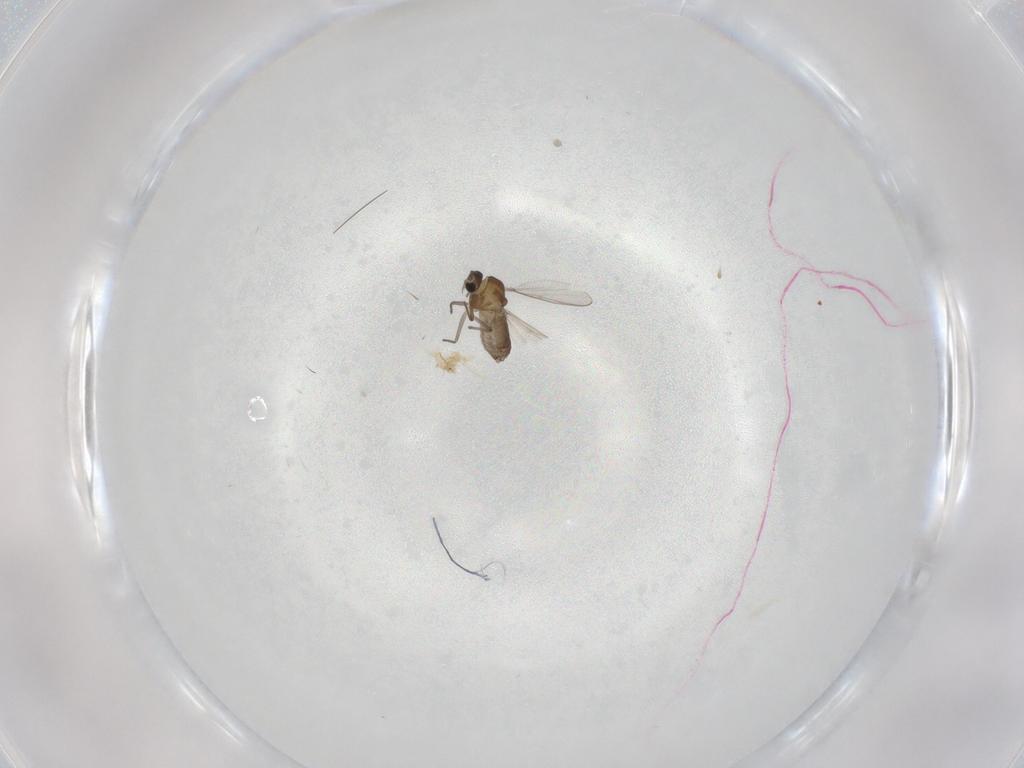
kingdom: Animalia
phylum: Arthropoda
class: Insecta
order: Diptera
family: Chironomidae
